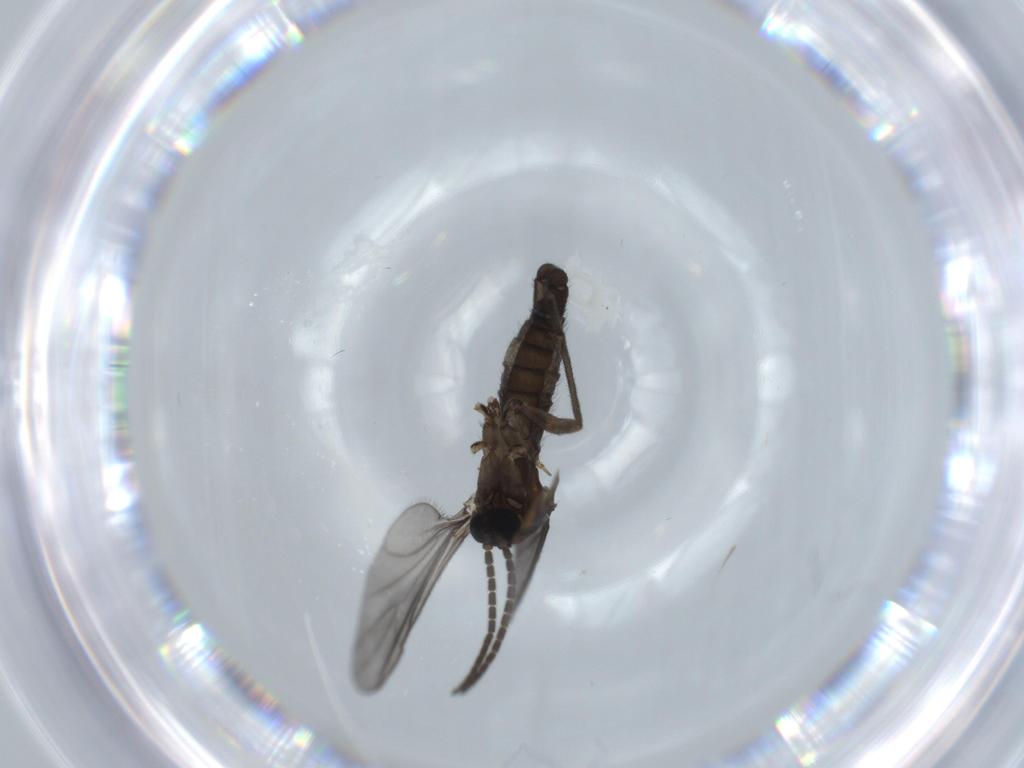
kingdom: Animalia
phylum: Arthropoda
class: Insecta
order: Diptera
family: Sciaridae
